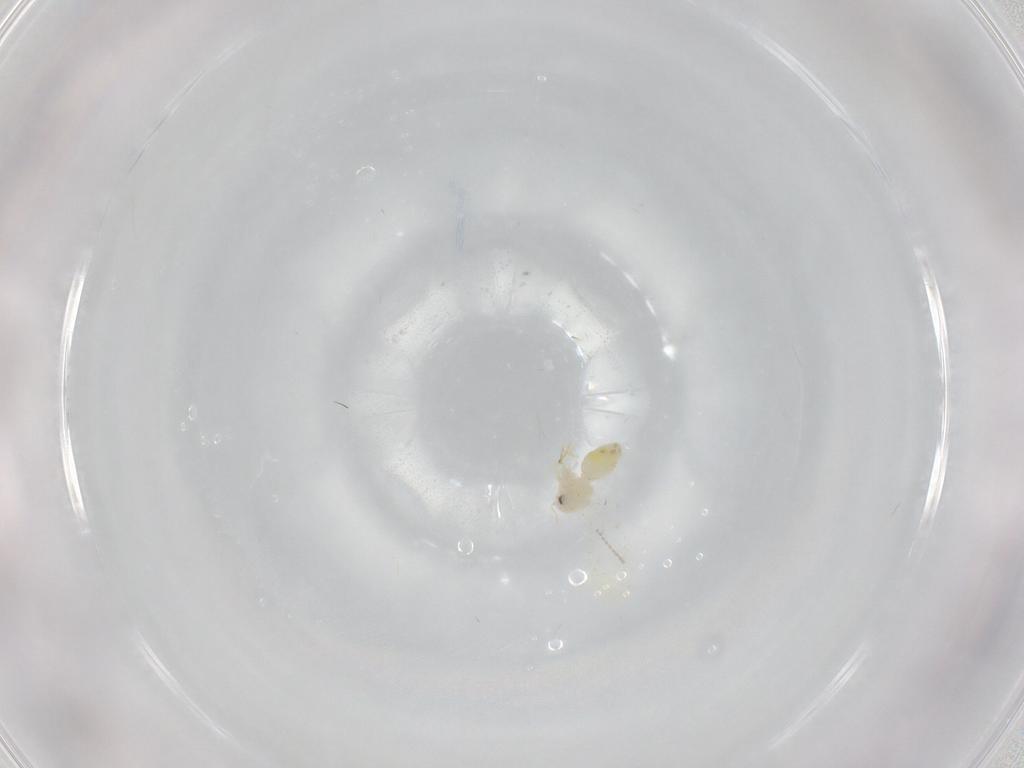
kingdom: Animalia
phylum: Arthropoda
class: Insecta
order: Hemiptera
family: Aleyrodidae
